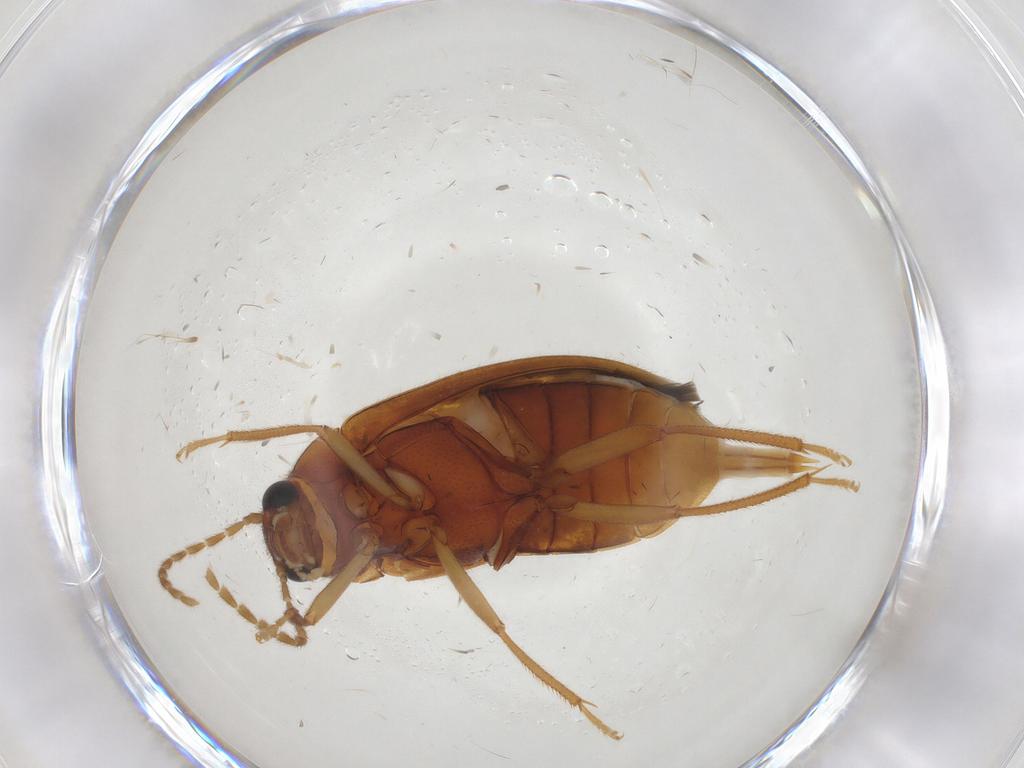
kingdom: Animalia
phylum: Arthropoda
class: Insecta
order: Coleoptera
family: Ptilodactylidae
